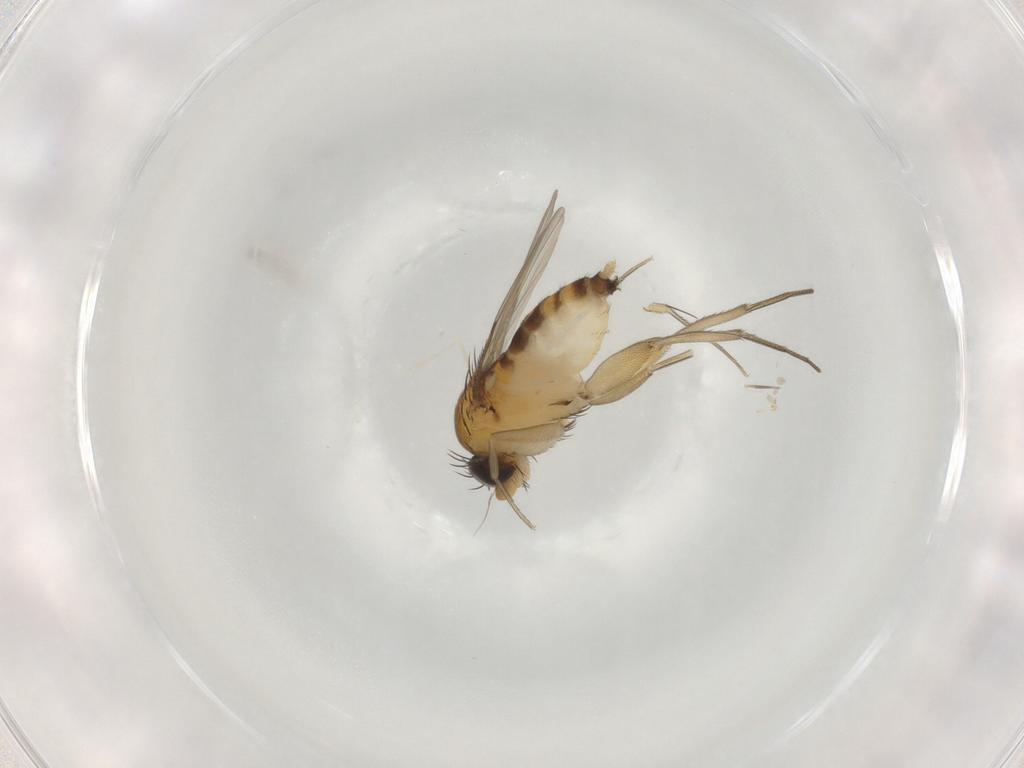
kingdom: Animalia
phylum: Arthropoda
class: Insecta
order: Diptera
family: Phoridae
